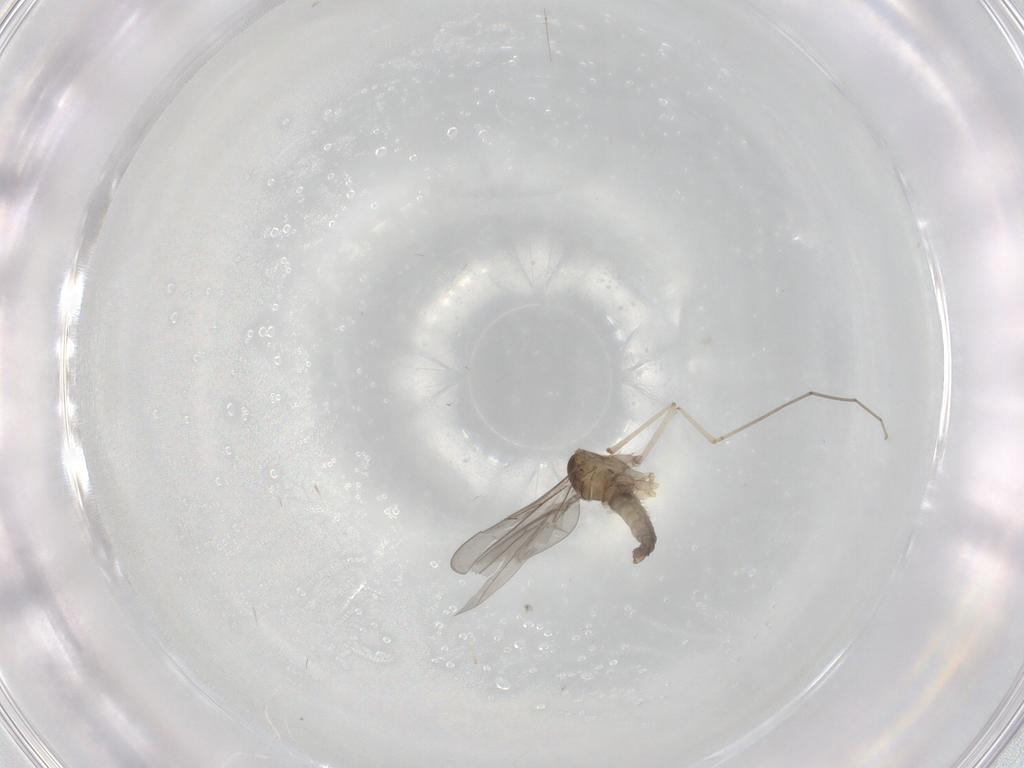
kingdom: Animalia
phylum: Arthropoda
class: Insecta
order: Diptera
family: Cecidomyiidae
